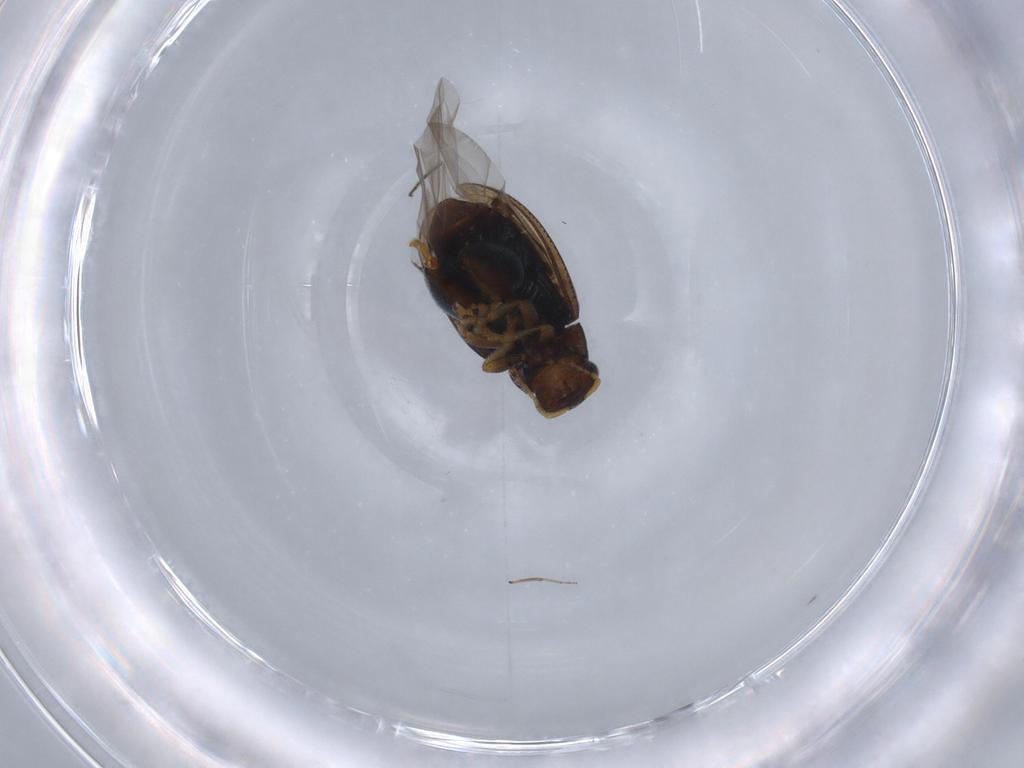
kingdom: Animalia
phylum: Arthropoda
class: Insecta
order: Coleoptera
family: Chrysomelidae
